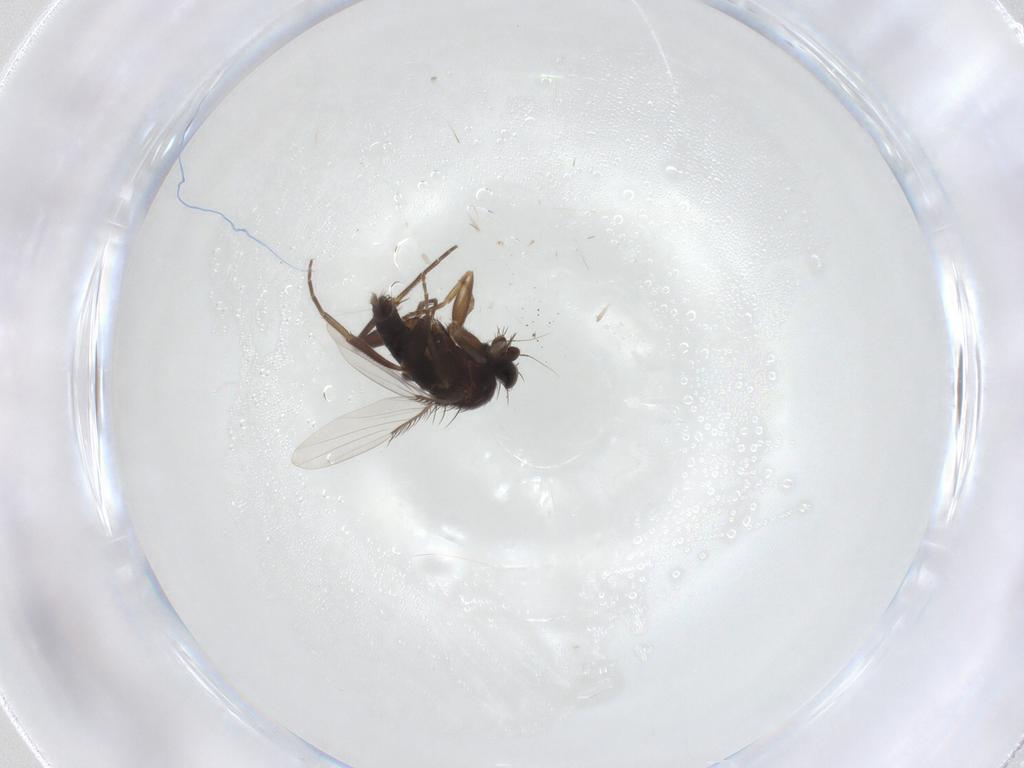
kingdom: Animalia
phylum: Arthropoda
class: Insecta
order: Diptera
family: Phoridae
